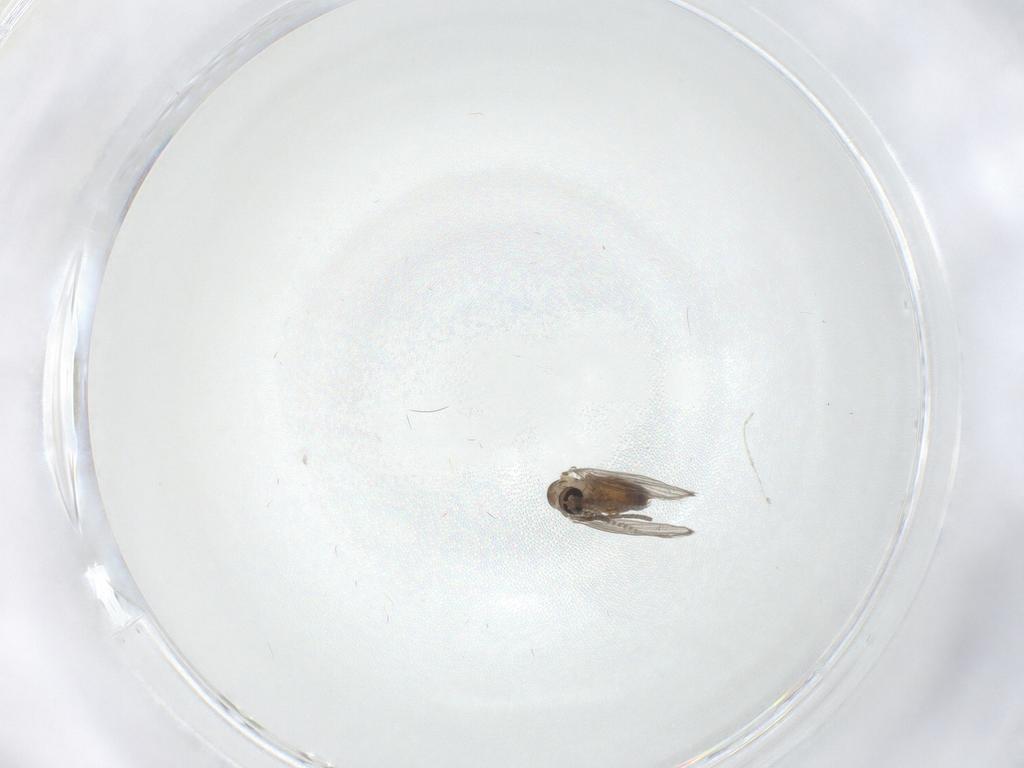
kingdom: Animalia
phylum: Arthropoda
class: Insecta
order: Diptera
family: Psychodidae
